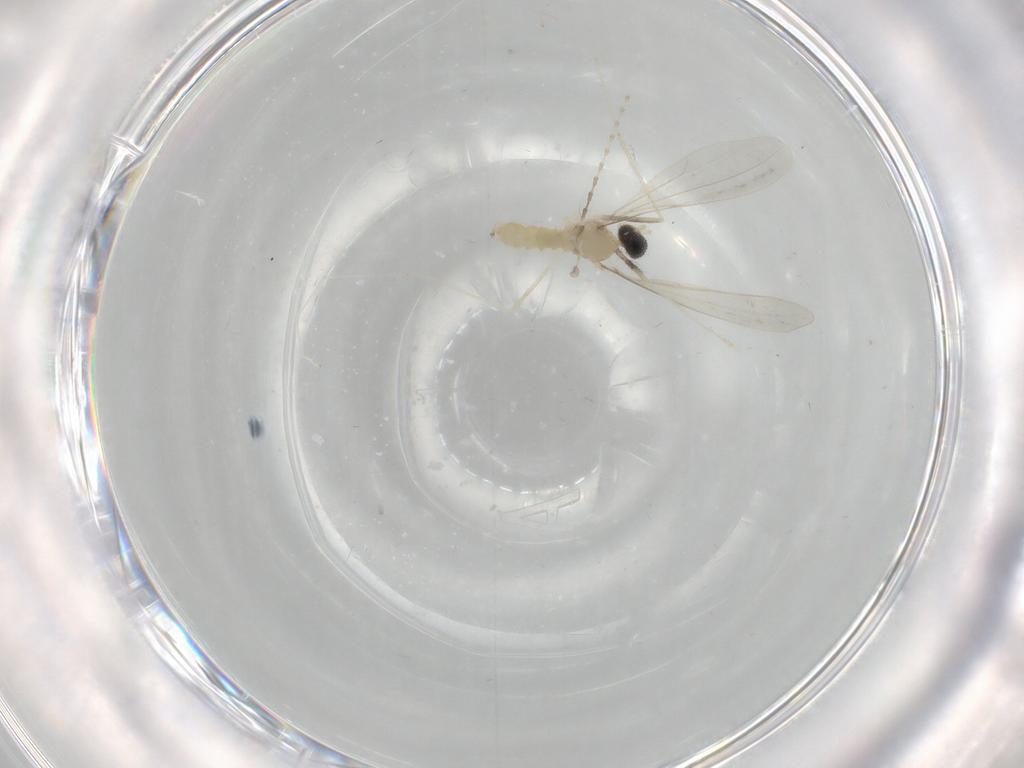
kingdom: Animalia
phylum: Arthropoda
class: Insecta
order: Diptera
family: Cecidomyiidae
